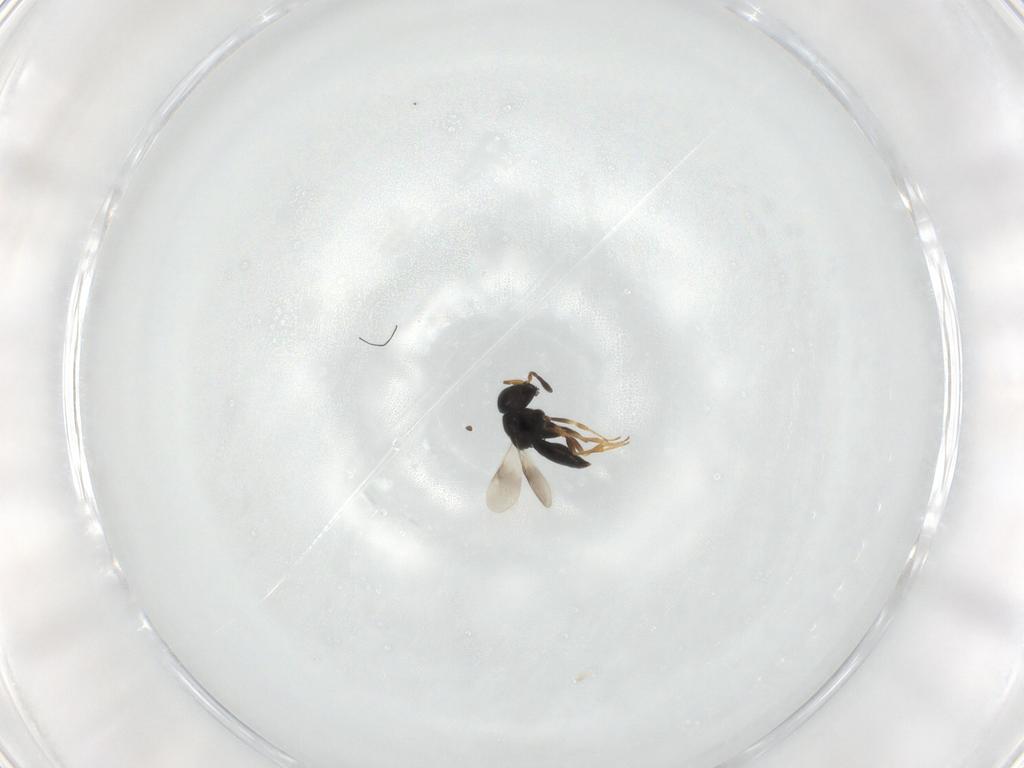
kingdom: Animalia
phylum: Arthropoda
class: Insecta
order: Hymenoptera
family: Scelionidae
